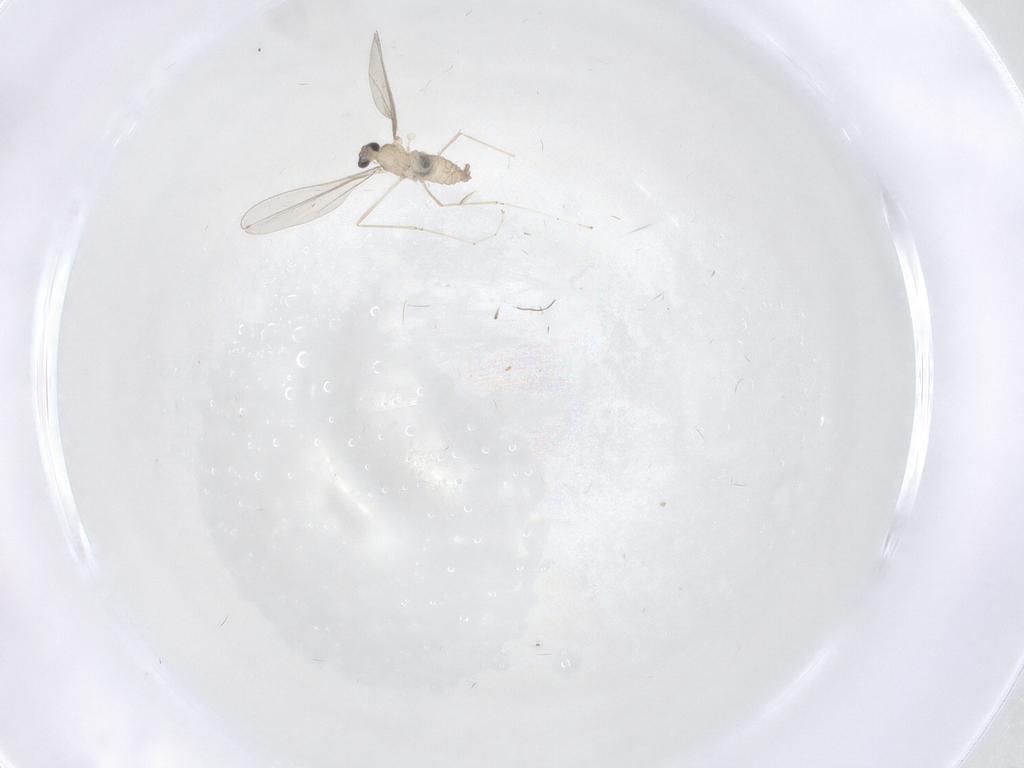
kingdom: Animalia
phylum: Arthropoda
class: Insecta
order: Diptera
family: Cecidomyiidae
